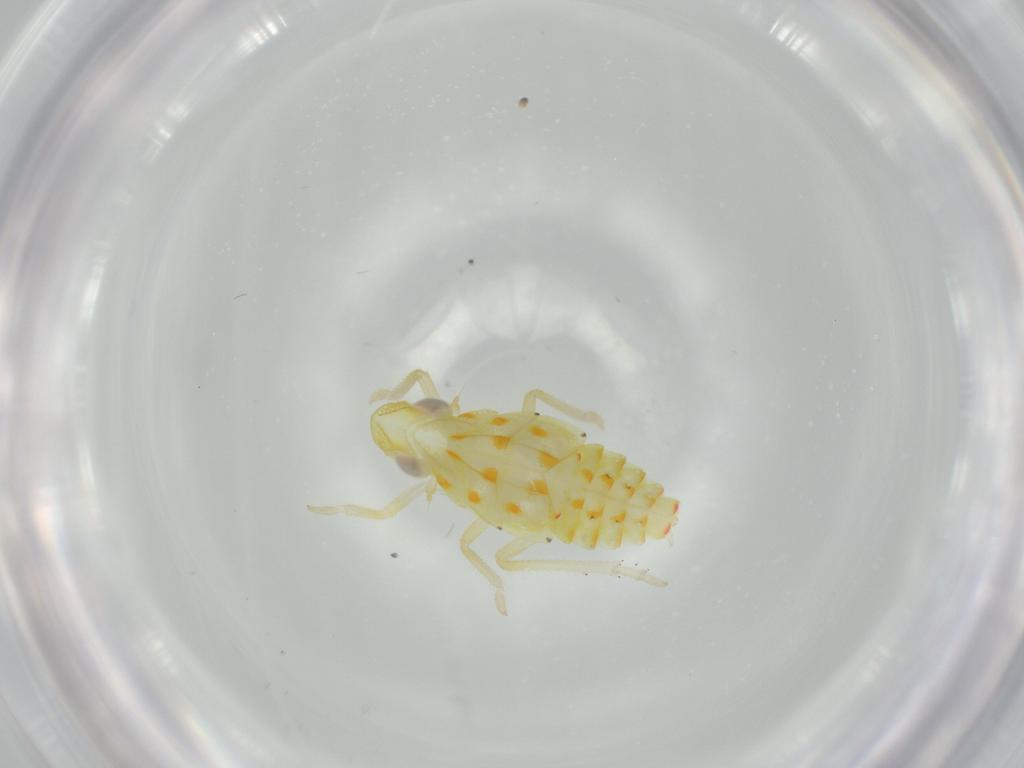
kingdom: Animalia
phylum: Arthropoda
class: Insecta
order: Hemiptera
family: Tropiduchidae
